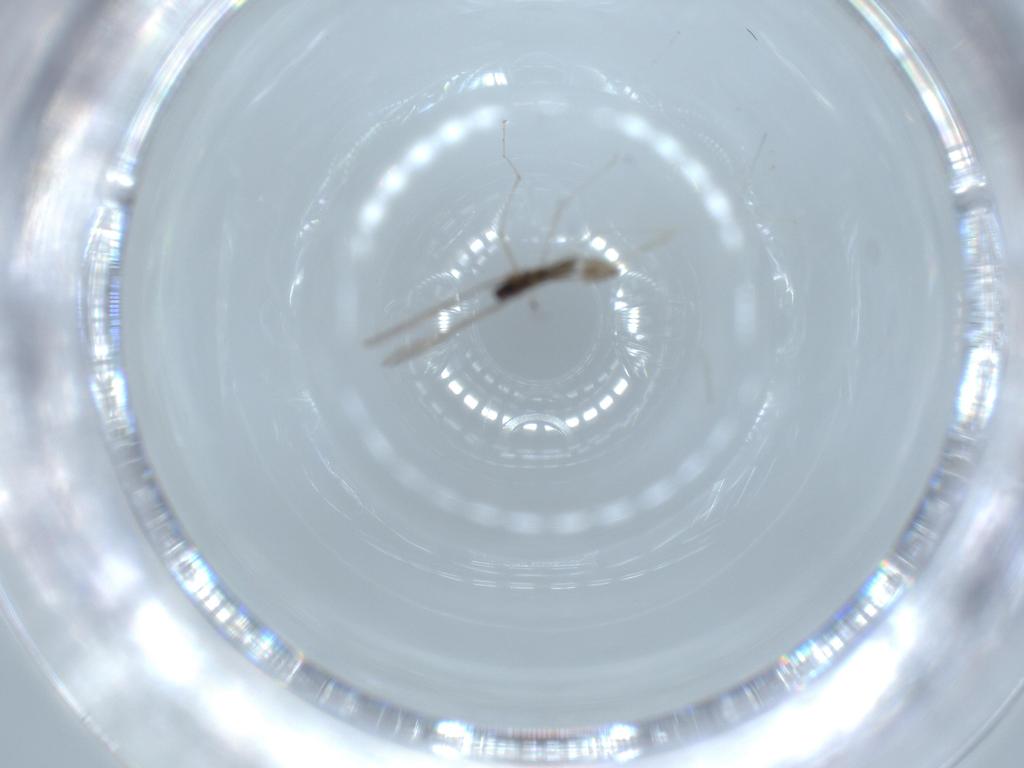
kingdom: Animalia
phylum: Arthropoda
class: Insecta
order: Diptera
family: Cecidomyiidae
